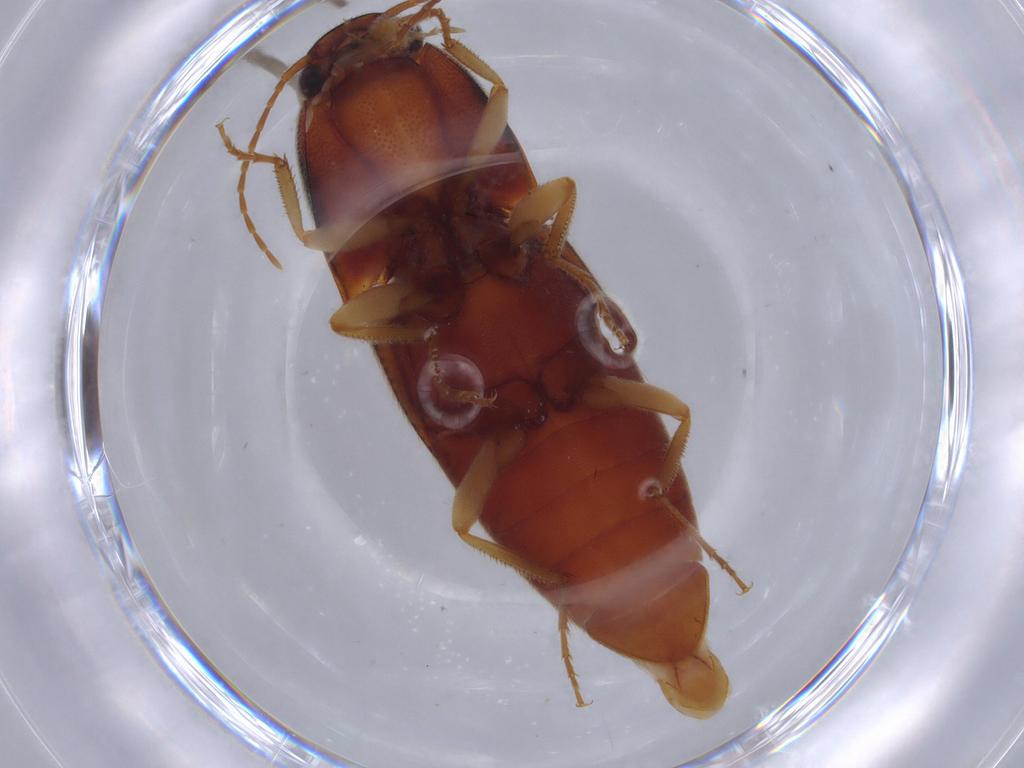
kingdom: Animalia
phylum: Arthropoda
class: Insecta
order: Coleoptera
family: Elateridae
